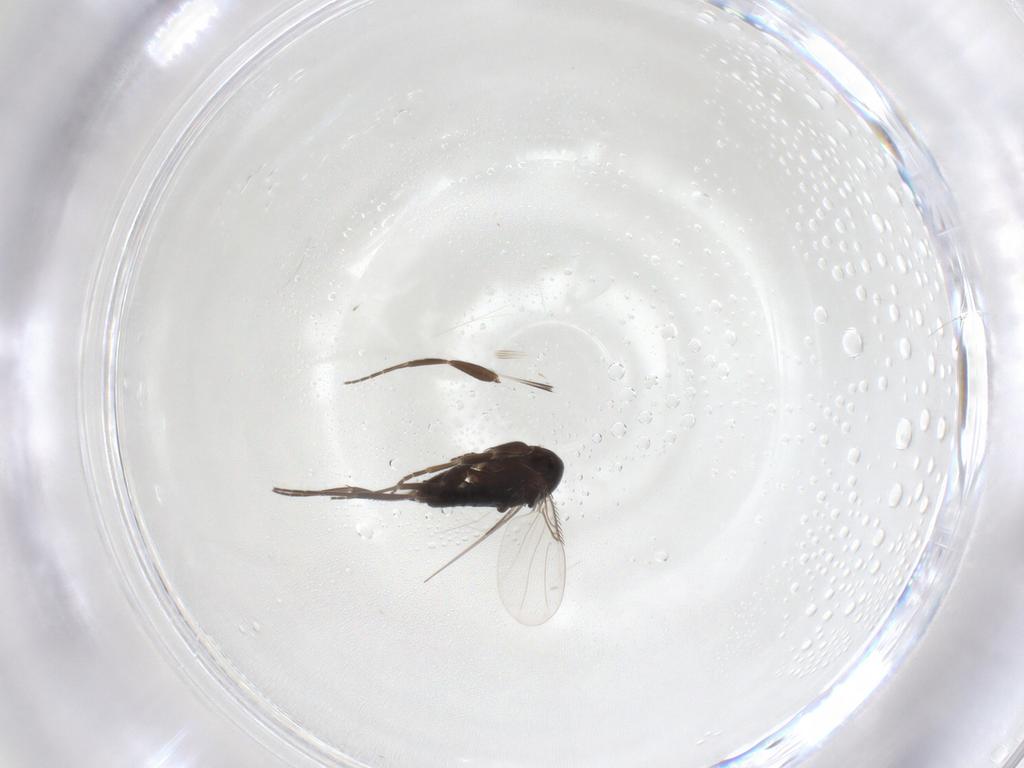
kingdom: Animalia
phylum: Arthropoda
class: Insecta
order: Diptera
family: Phoridae
